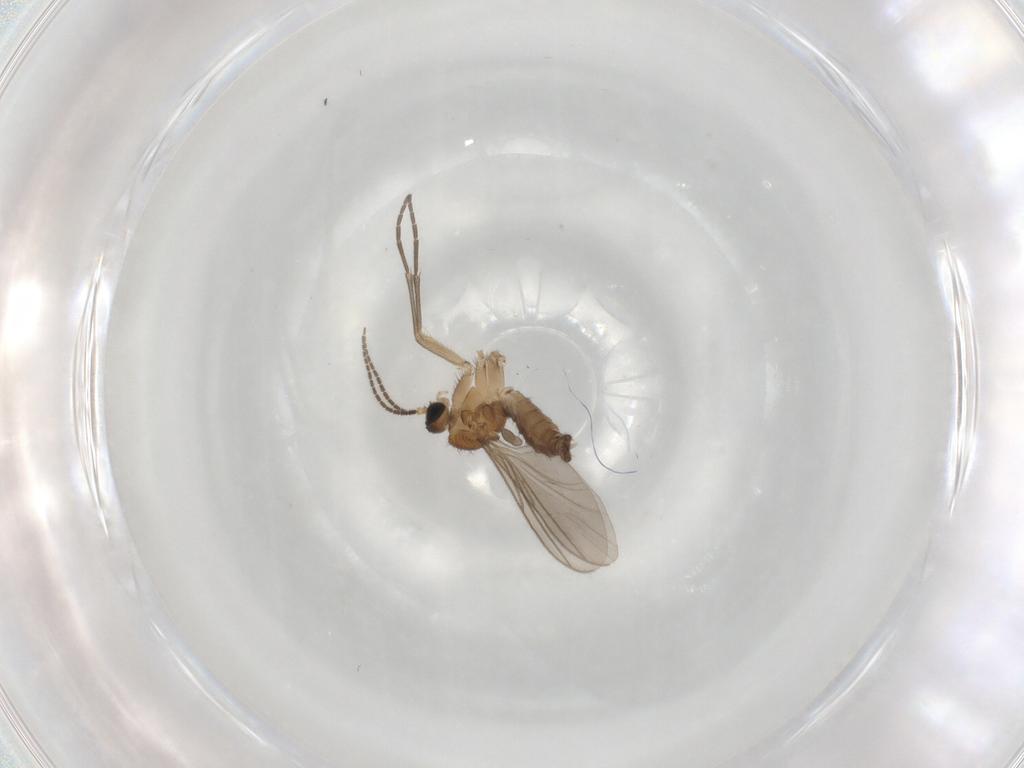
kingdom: Animalia
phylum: Arthropoda
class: Insecta
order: Diptera
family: Sciaridae
